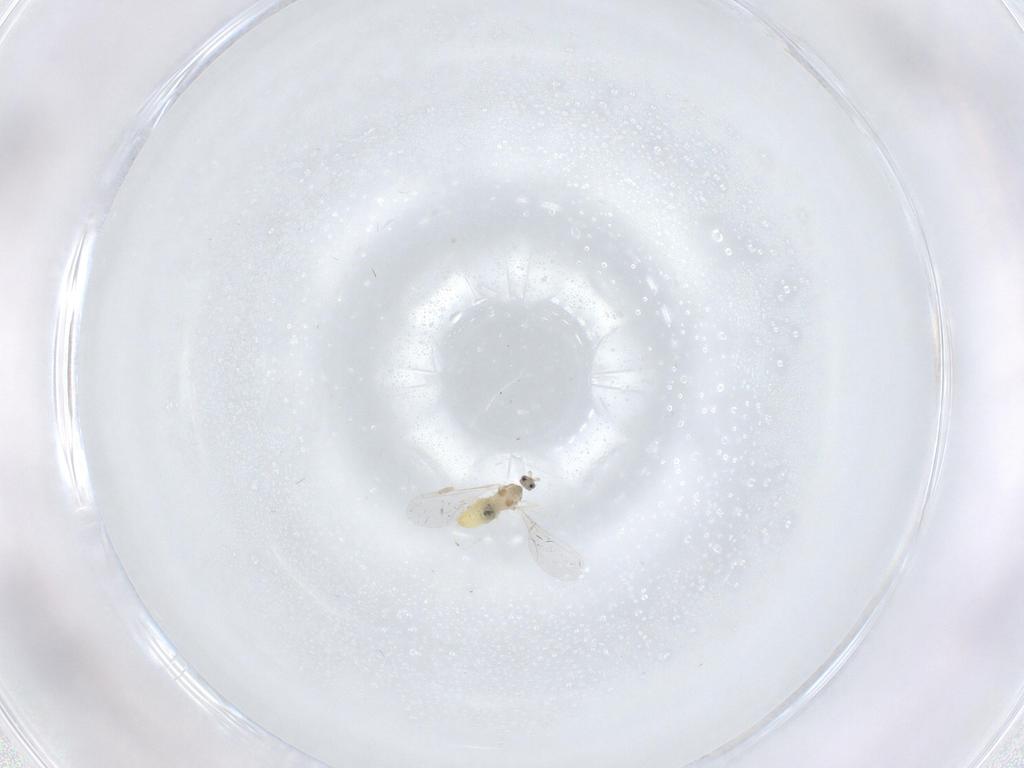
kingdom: Animalia
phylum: Arthropoda
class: Insecta
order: Diptera
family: Cecidomyiidae
